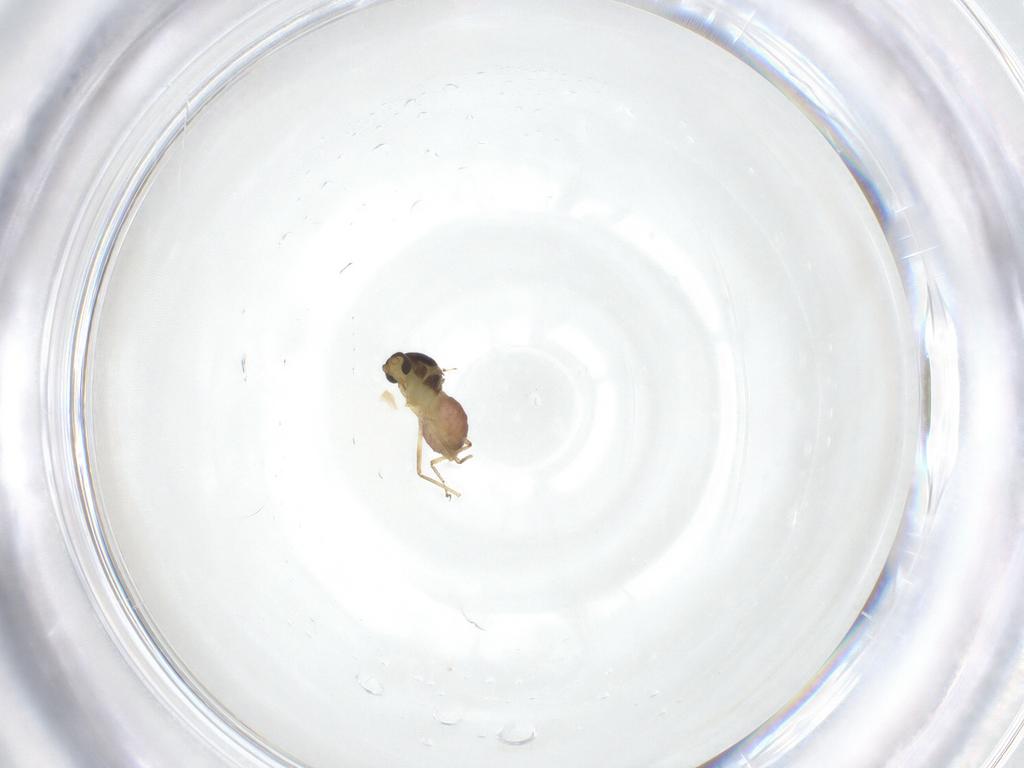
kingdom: Animalia
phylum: Arthropoda
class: Insecta
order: Diptera
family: Ceratopogonidae
